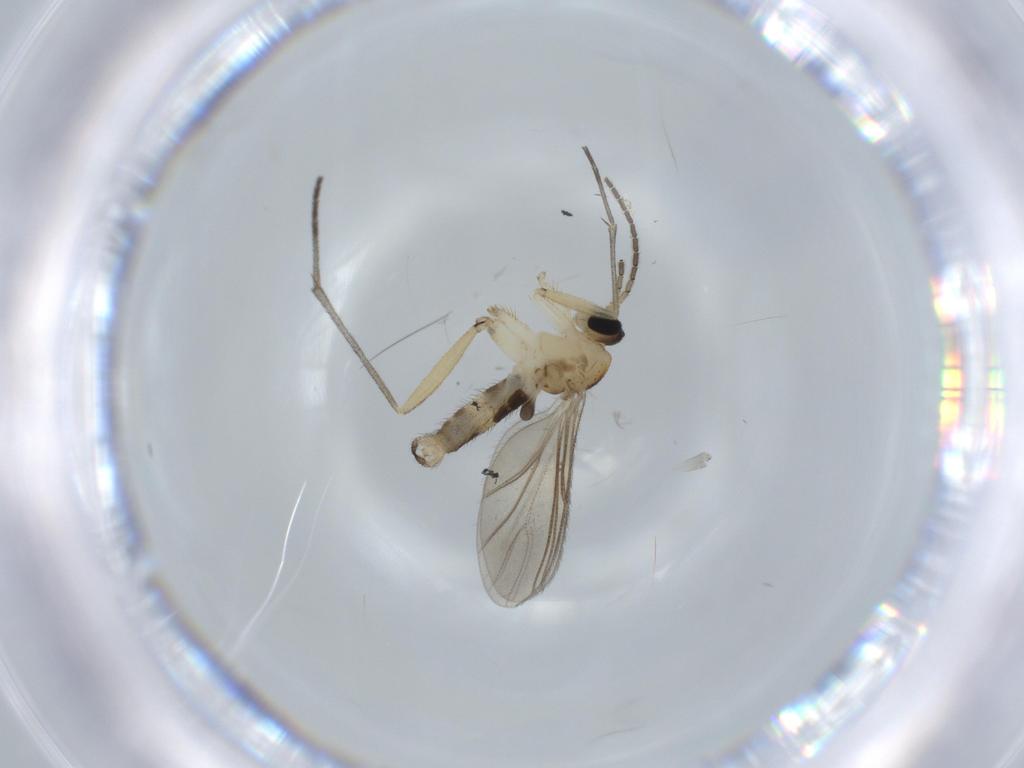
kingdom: Animalia
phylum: Arthropoda
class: Insecta
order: Diptera
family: Sciaridae
